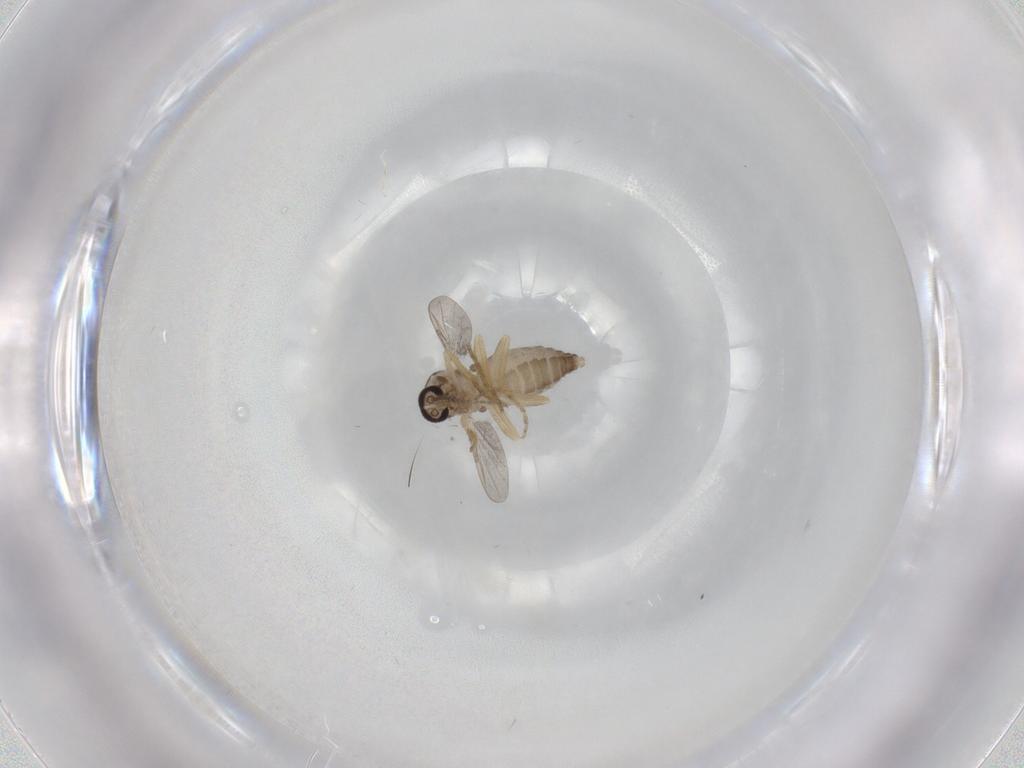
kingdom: Animalia
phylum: Arthropoda
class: Insecta
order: Diptera
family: Ceratopogonidae
